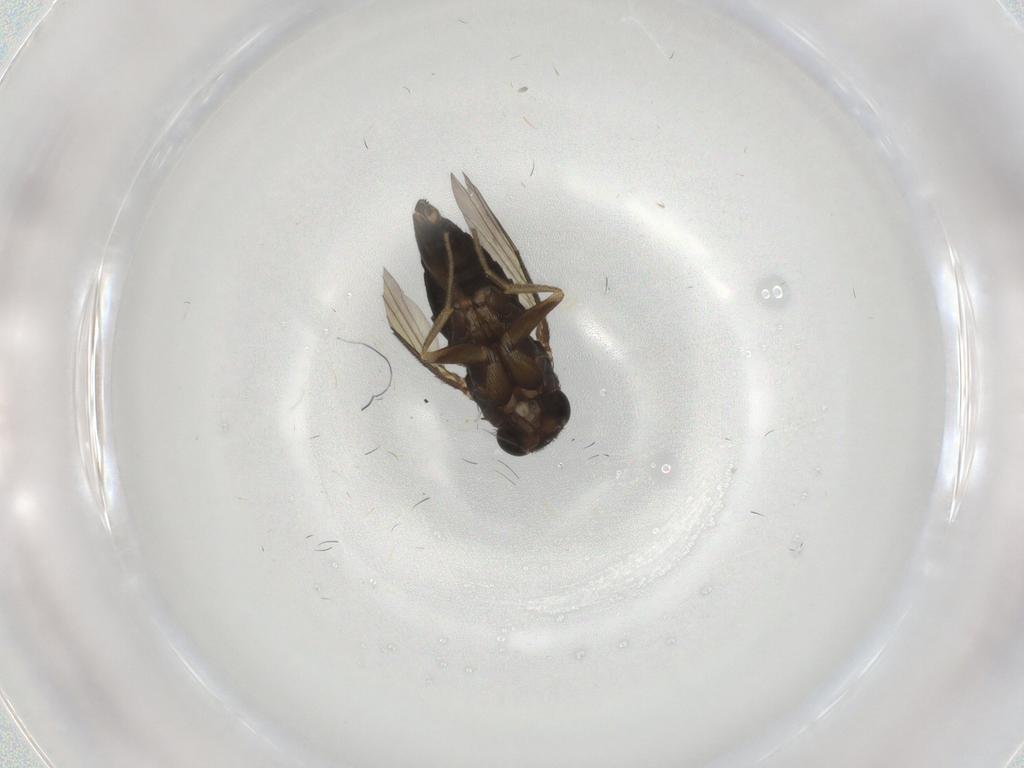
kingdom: Animalia
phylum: Arthropoda
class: Insecta
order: Diptera
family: Phoridae
